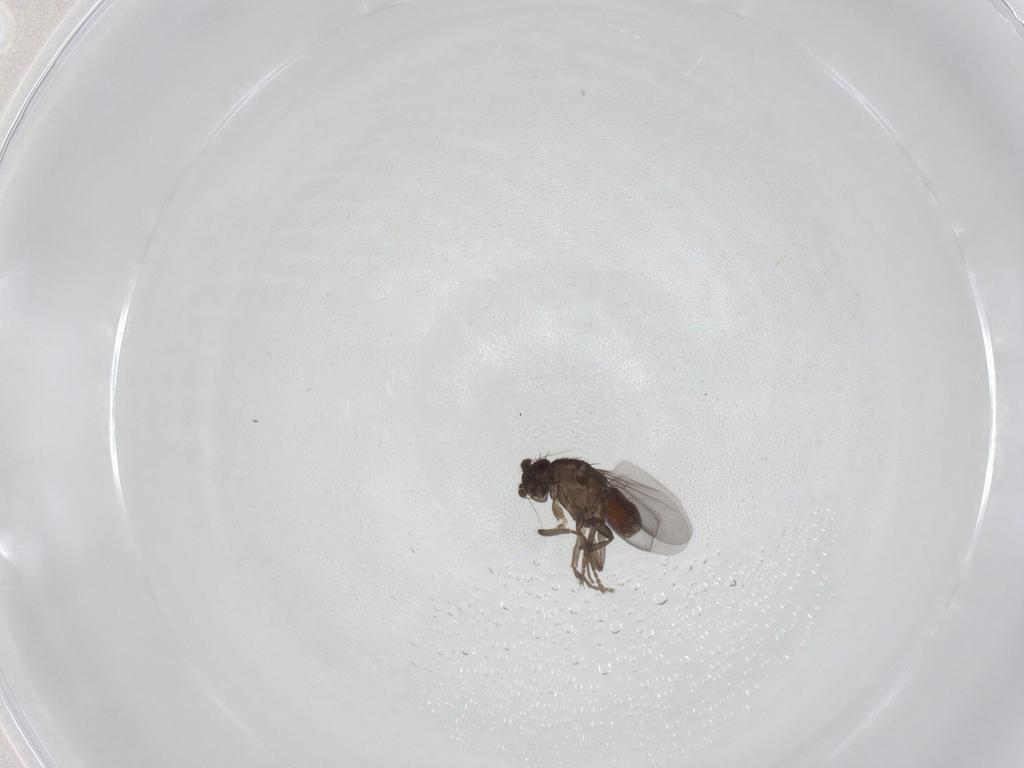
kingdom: Animalia
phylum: Arthropoda
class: Insecta
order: Diptera
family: Sphaeroceridae
